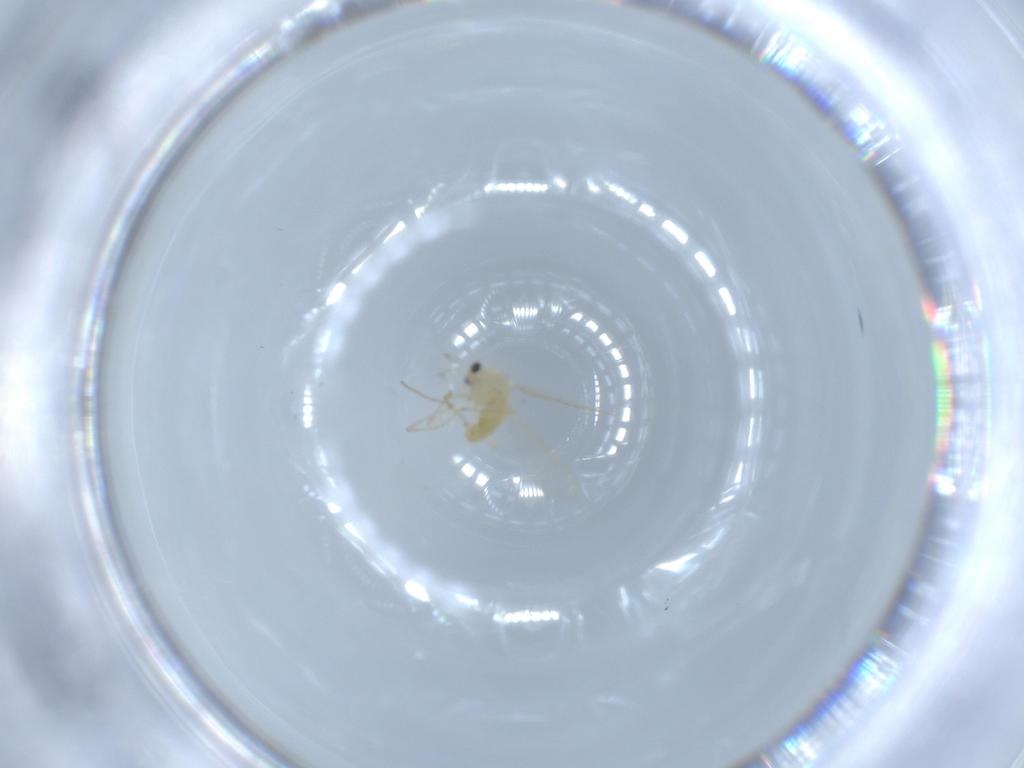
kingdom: Animalia
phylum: Arthropoda
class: Insecta
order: Diptera
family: Chironomidae
